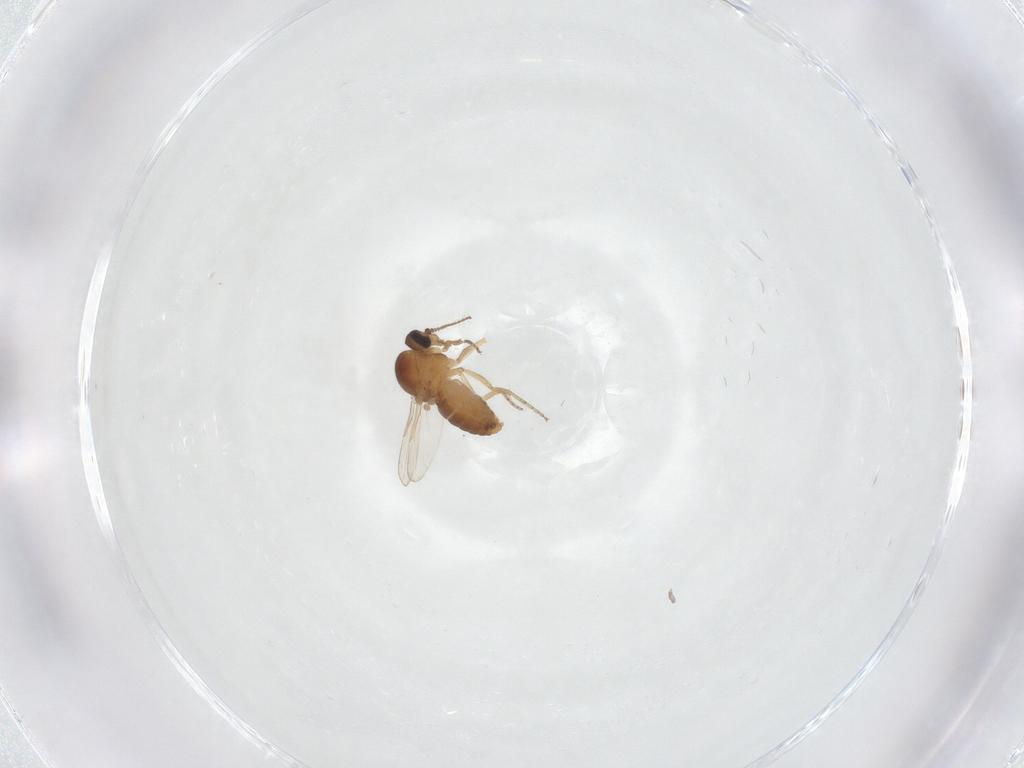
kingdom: Animalia
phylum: Arthropoda
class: Insecta
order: Diptera
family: Ceratopogonidae
